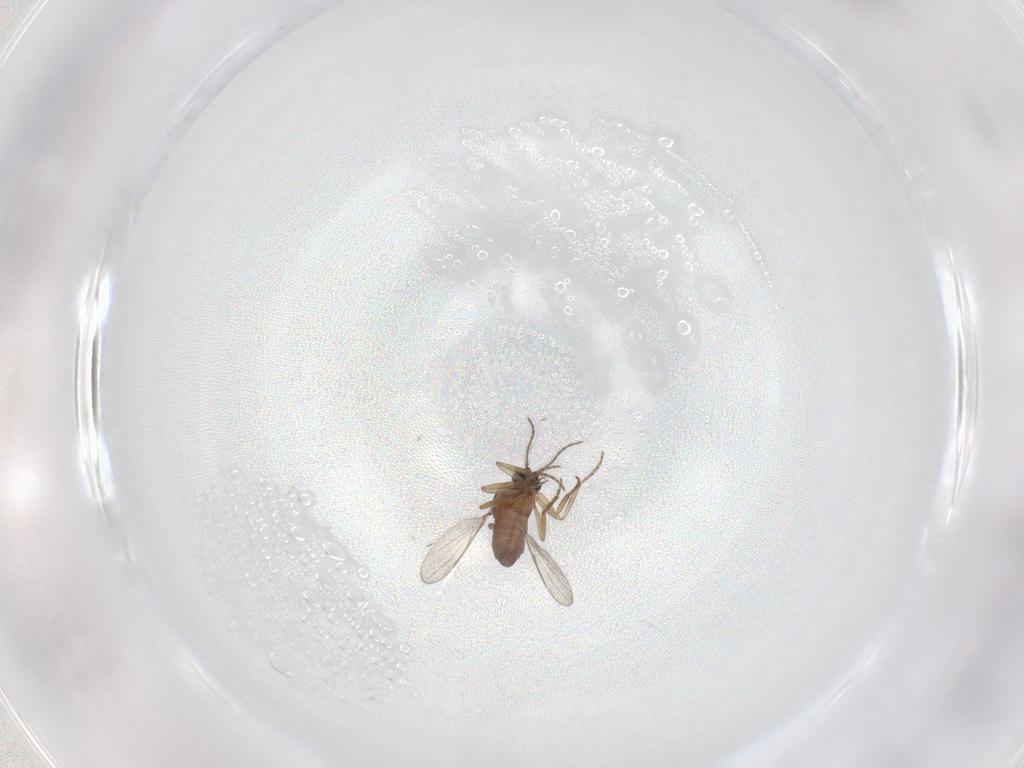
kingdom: Animalia
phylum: Arthropoda
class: Insecta
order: Diptera
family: Ceratopogonidae
